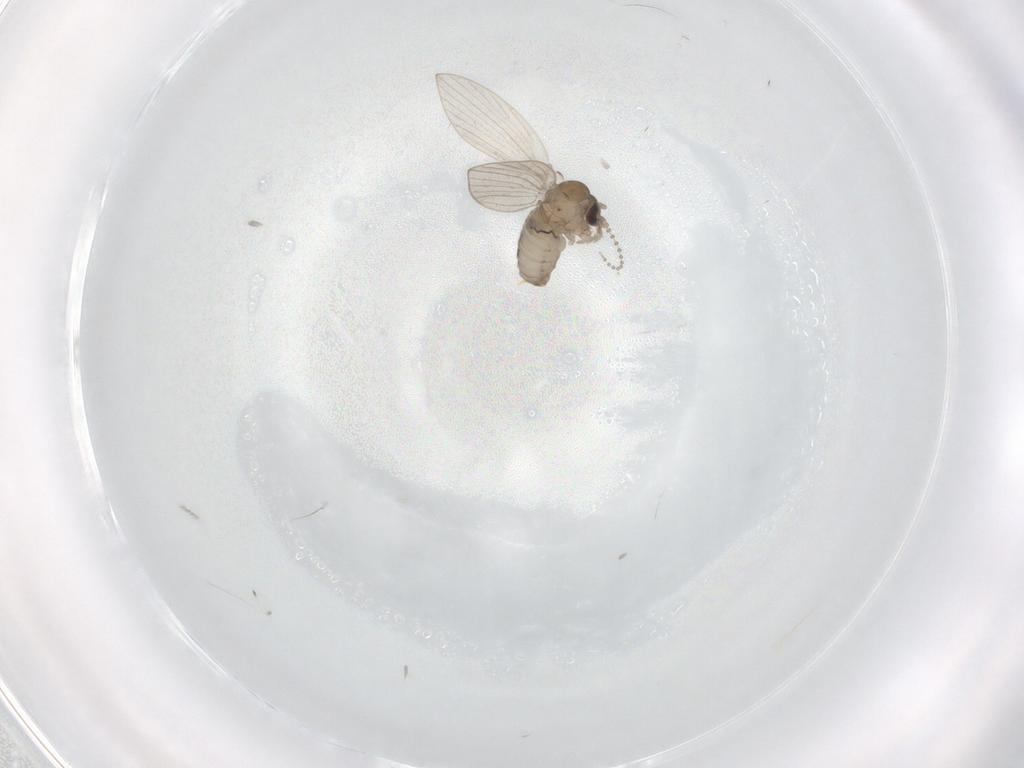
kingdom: Animalia
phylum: Arthropoda
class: Insecta
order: Diptera
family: Psychodidae
